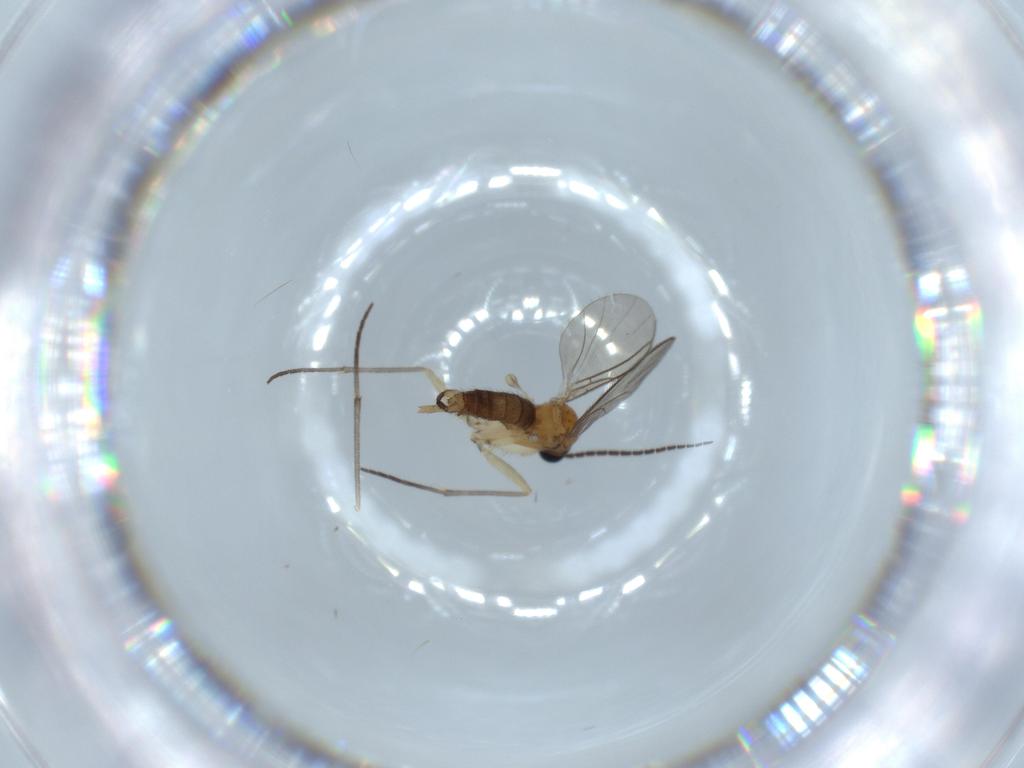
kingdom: Animalia
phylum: Arthropoda
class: Insecta
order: Diptera
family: Sciaridae
